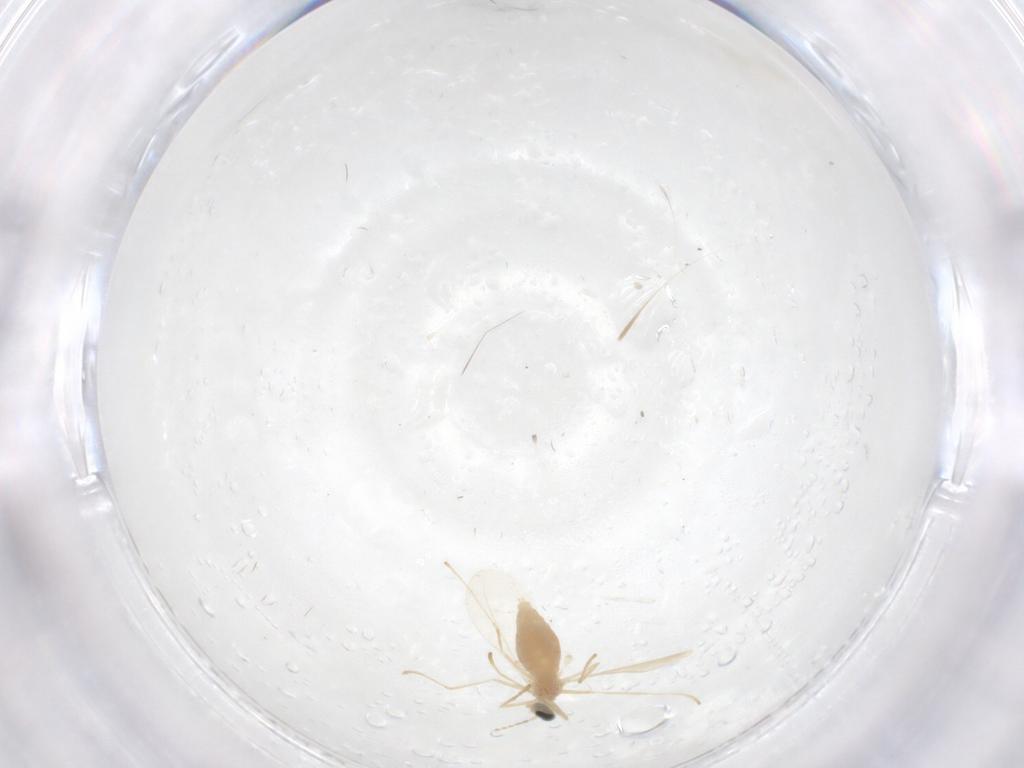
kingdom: Animalia
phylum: Arthropoda
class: Insecta
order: Diptera
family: Cecidomyiidae
